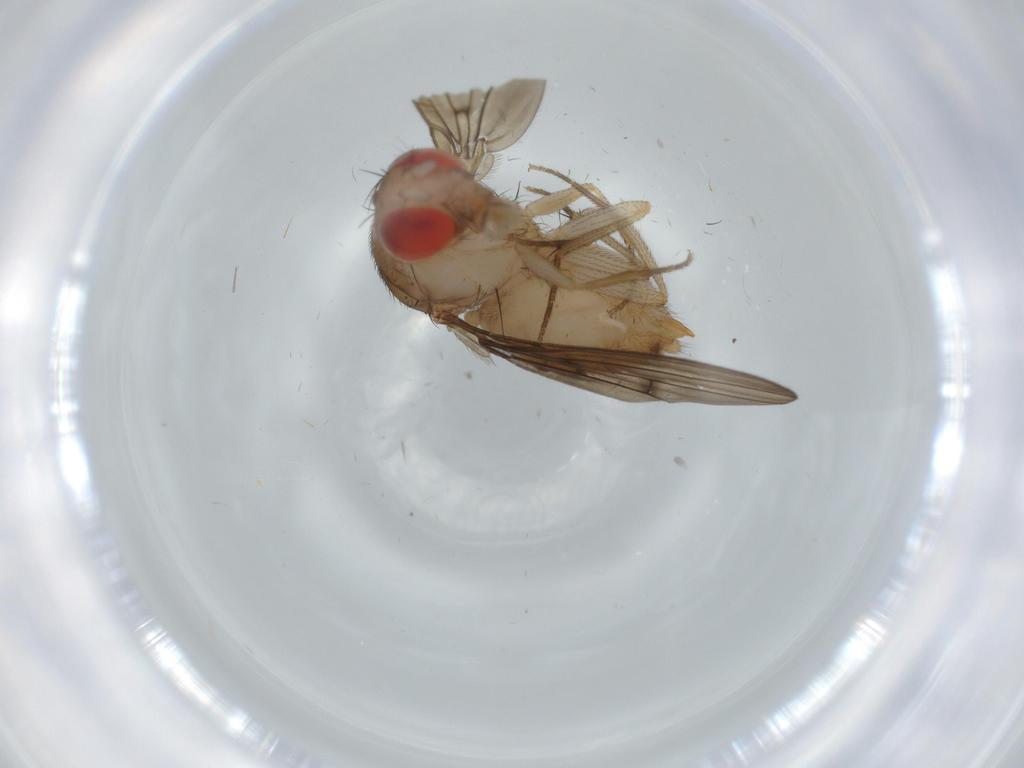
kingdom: Animalia
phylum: Arthropoda
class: Insecta
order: Diptera
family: Drosophilidae
